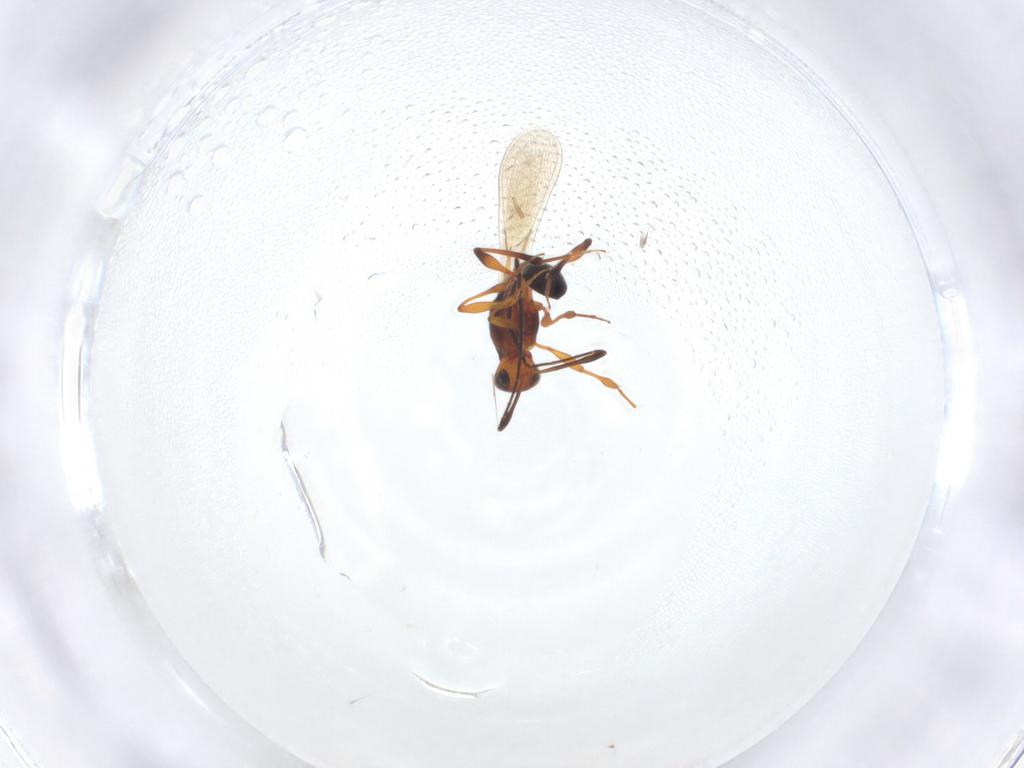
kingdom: Animalia
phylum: Arthropoda
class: Insecta
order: Hymenoptera
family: Platygastridae
